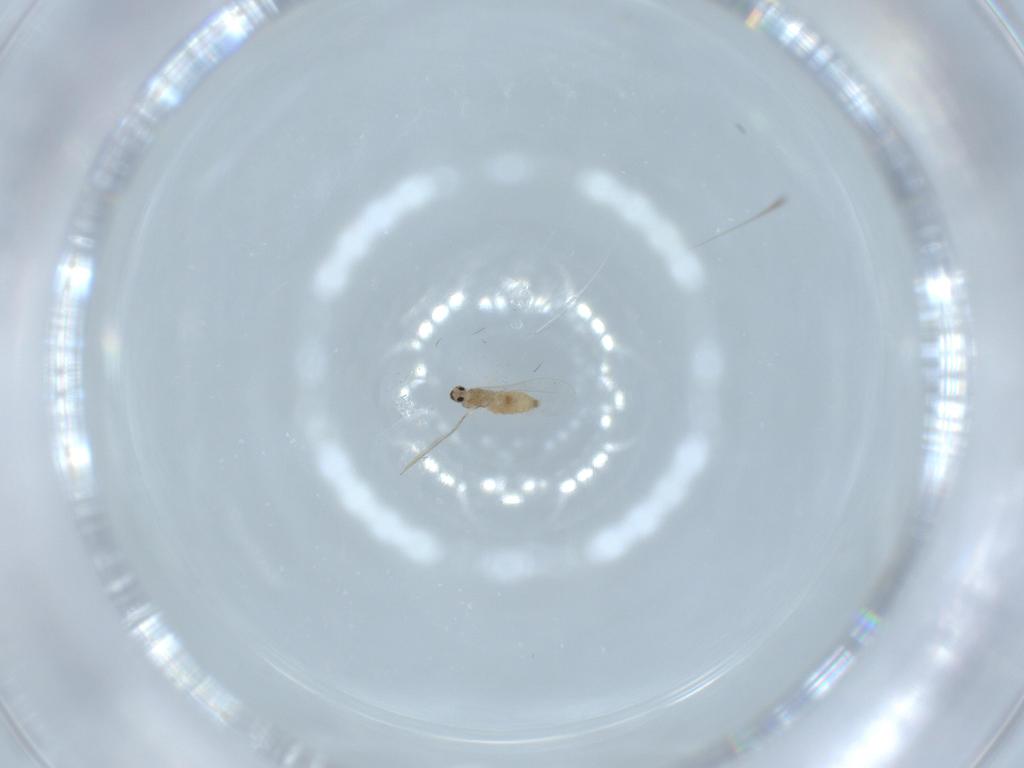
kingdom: Animalia
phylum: Arthropoda
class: Insecta
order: Diptera
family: Cecidomyiidae
